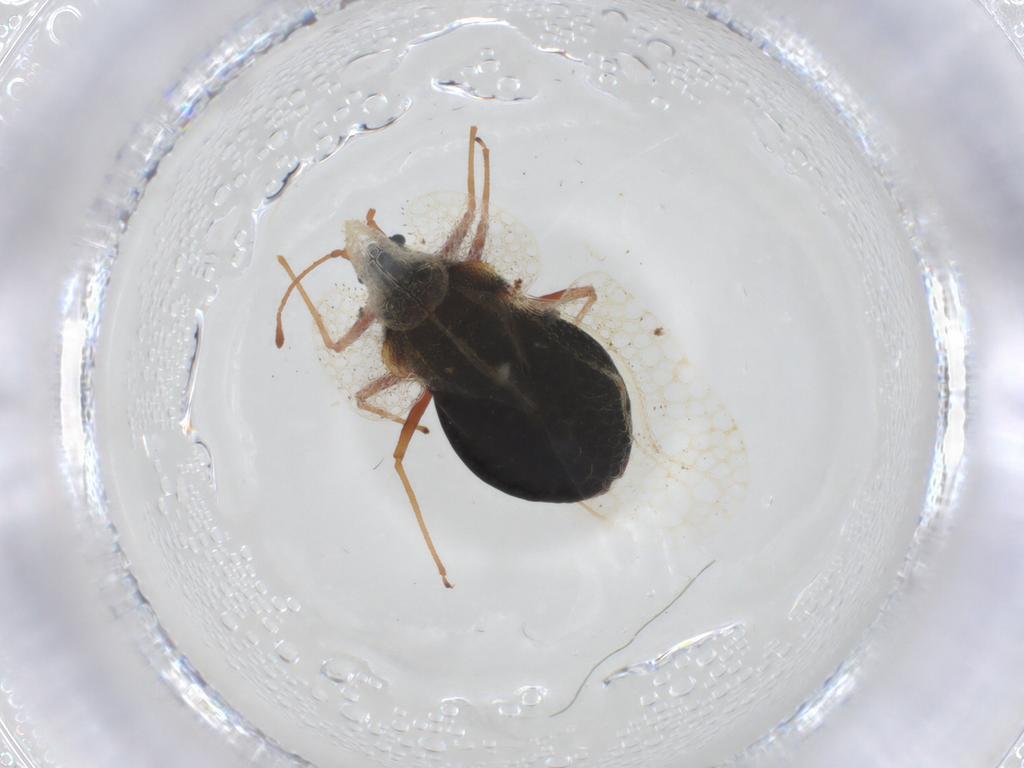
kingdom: Animalia
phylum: Arthropoda
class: Insecta
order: Hemiptera
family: Tingidae
